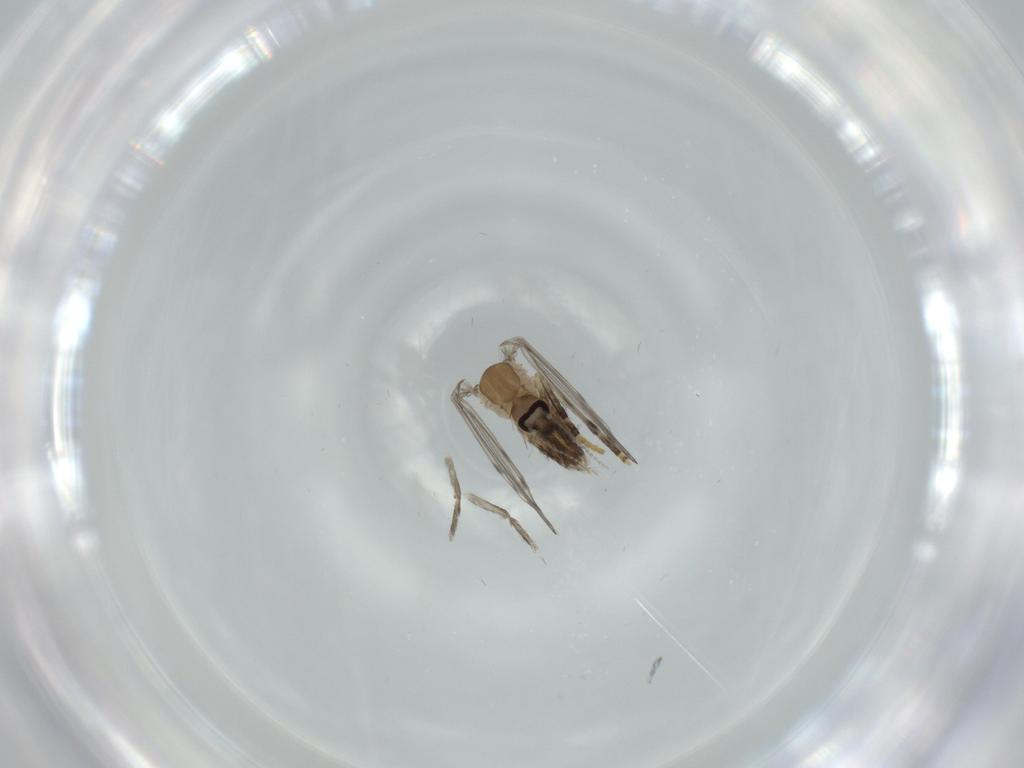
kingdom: Animalia
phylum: Arthropoda
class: Insecta
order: Diptera
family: Psychodidae
